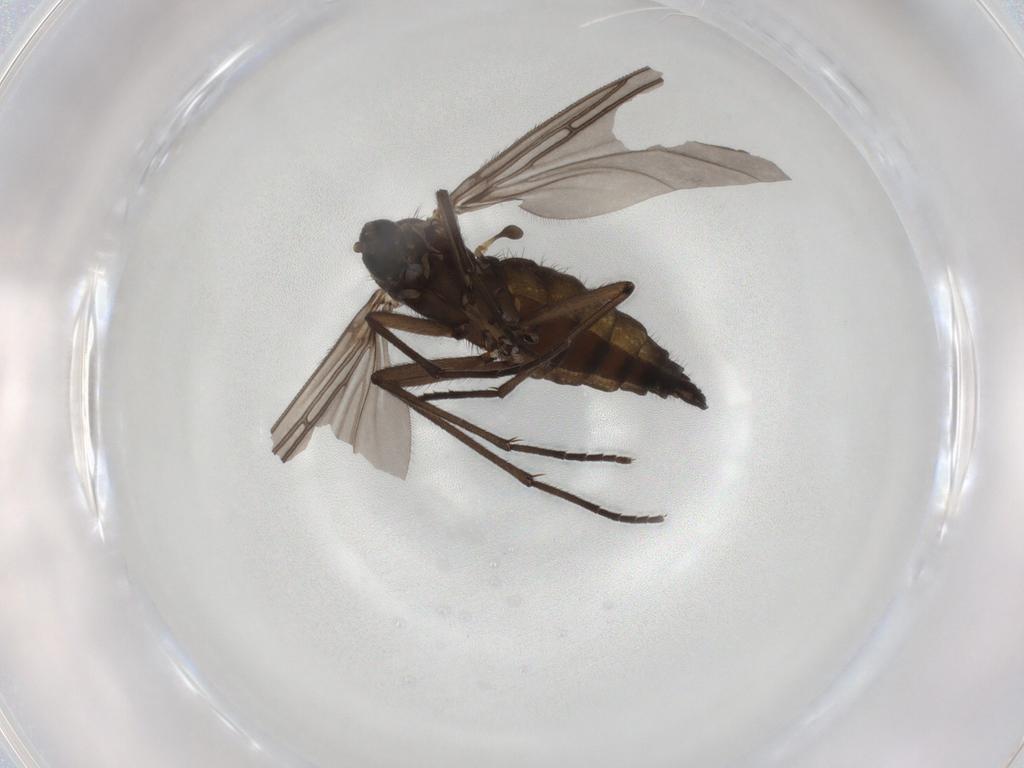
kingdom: Animalia
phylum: Arthropoda
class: Insecta
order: Diptera
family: Sciaridae
